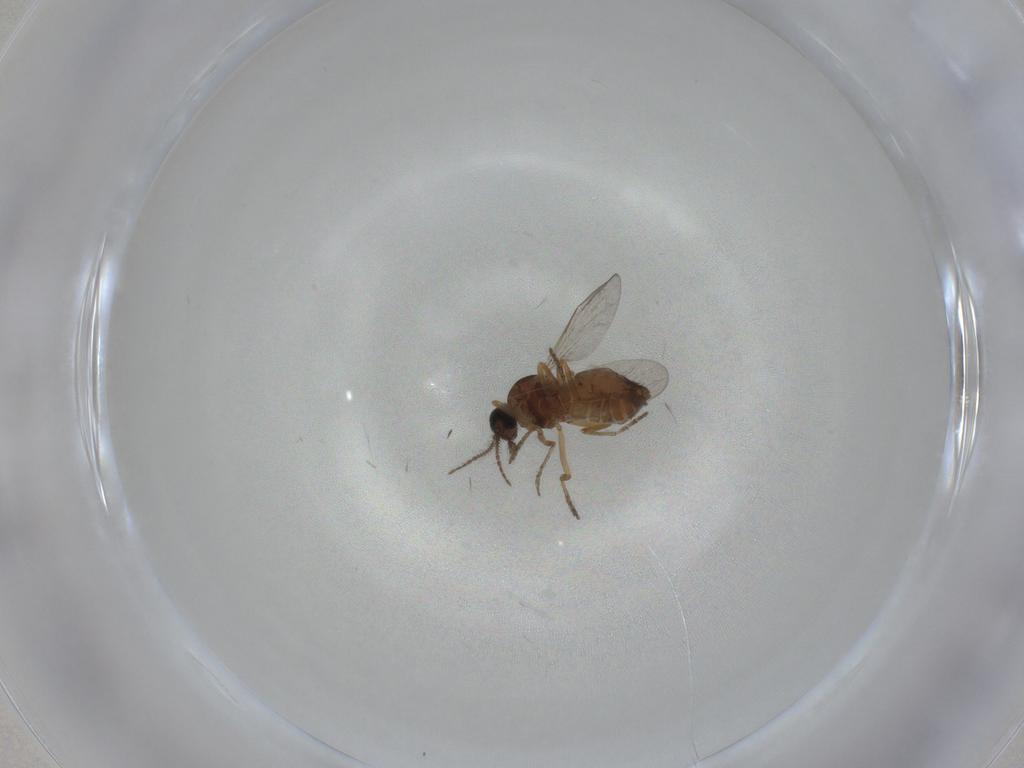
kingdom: Animalia
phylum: Arthropoda
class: Insecta
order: Diptera
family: Ceratopogonidae
